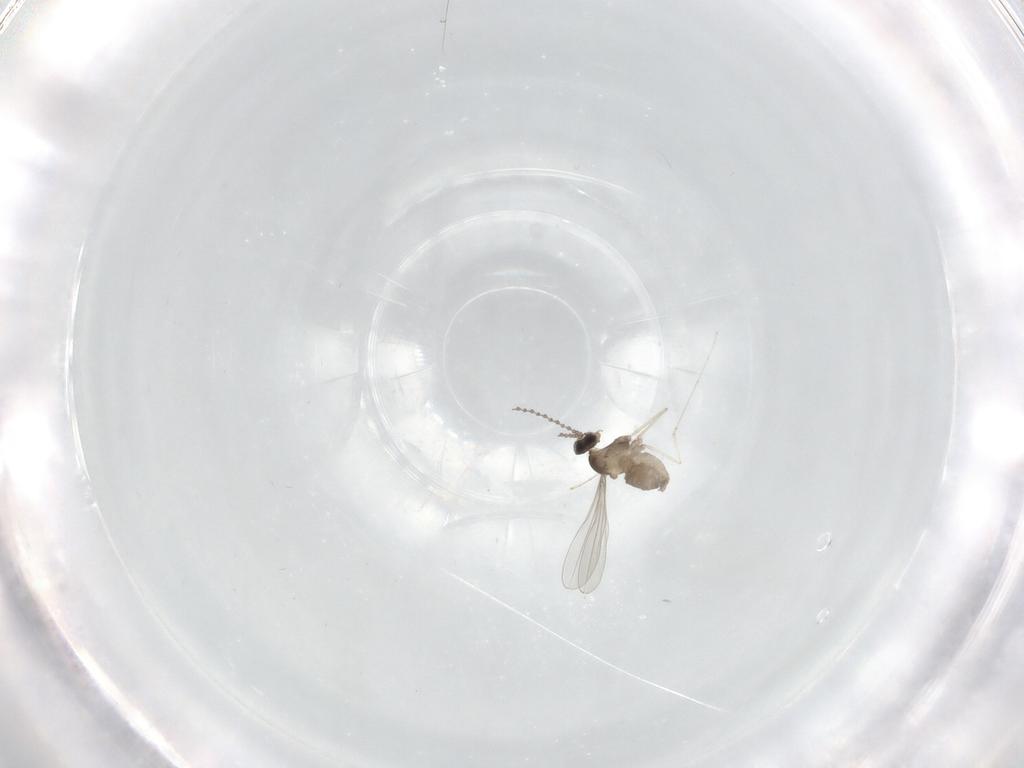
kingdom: Animalia
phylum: Arthropoda
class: Insecta
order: Diptera
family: Cecidomyiidae
